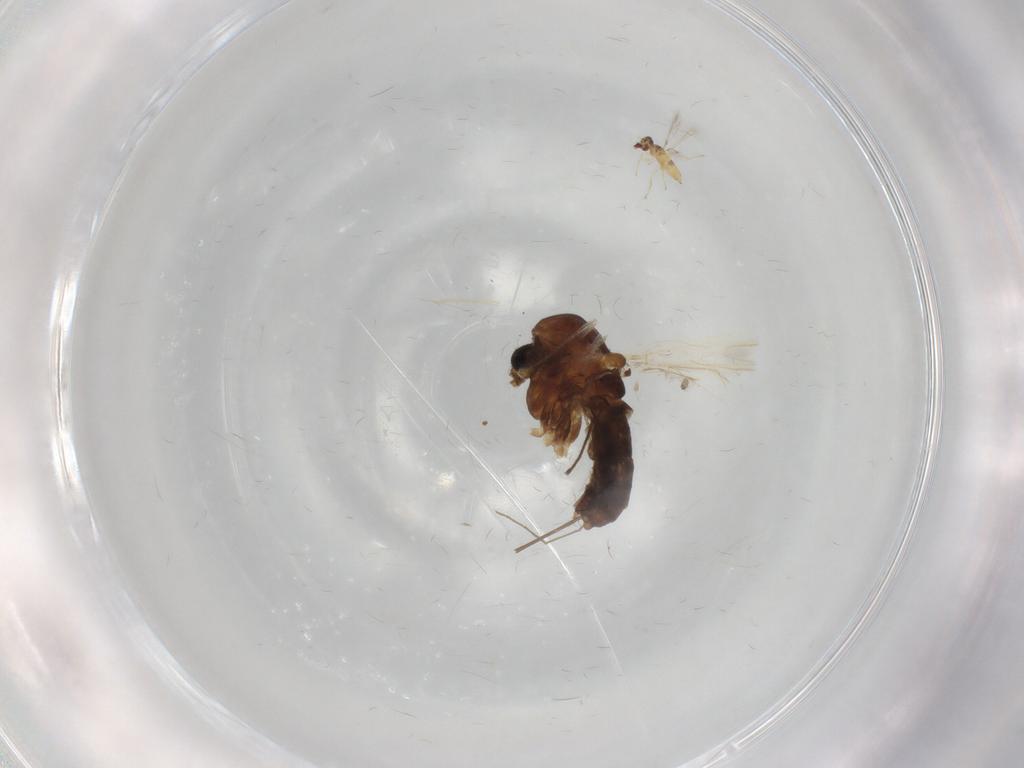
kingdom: Animalia
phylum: Arthropoda
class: Insecta
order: Diptera
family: Chironomidae
